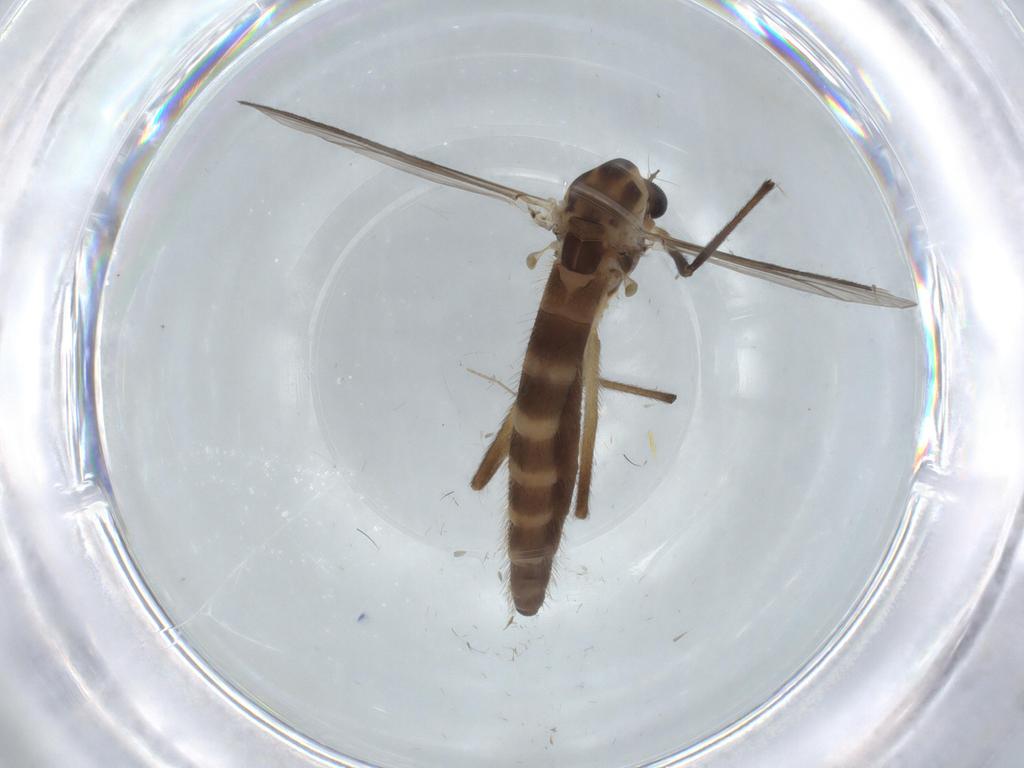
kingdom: Animalia
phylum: Arthropoda
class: Insecta
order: Diptera
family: Chironomidae
